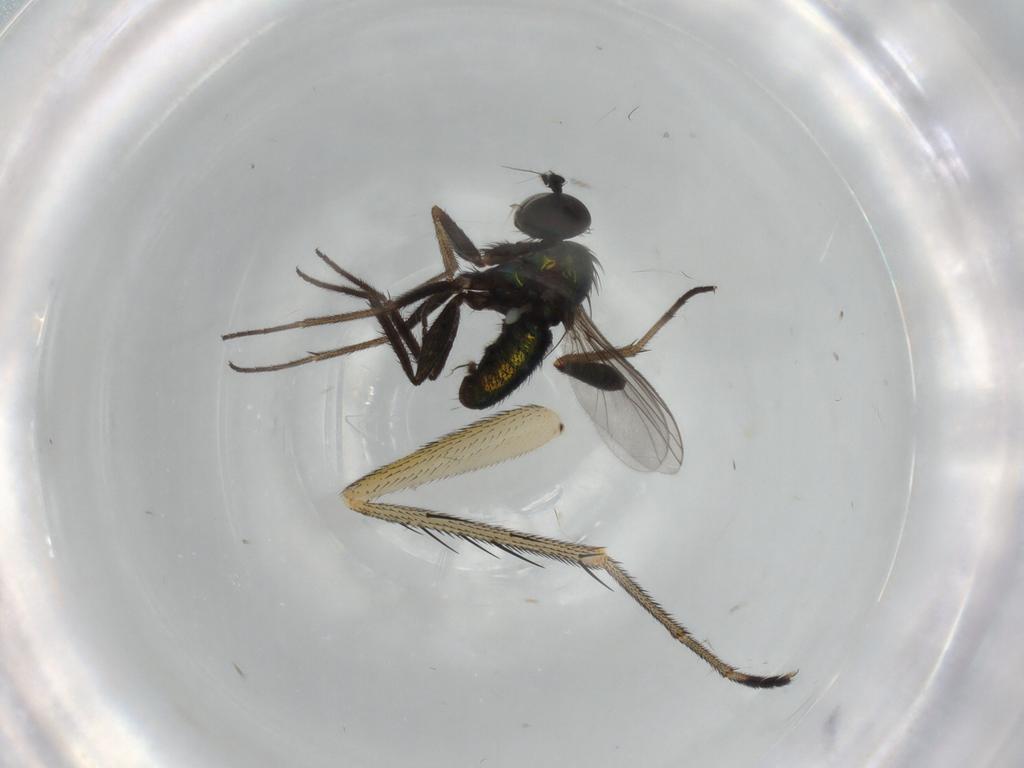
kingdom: Animalia
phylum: Arthropoda
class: Insecta
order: Diptera
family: Dolichopodidae
